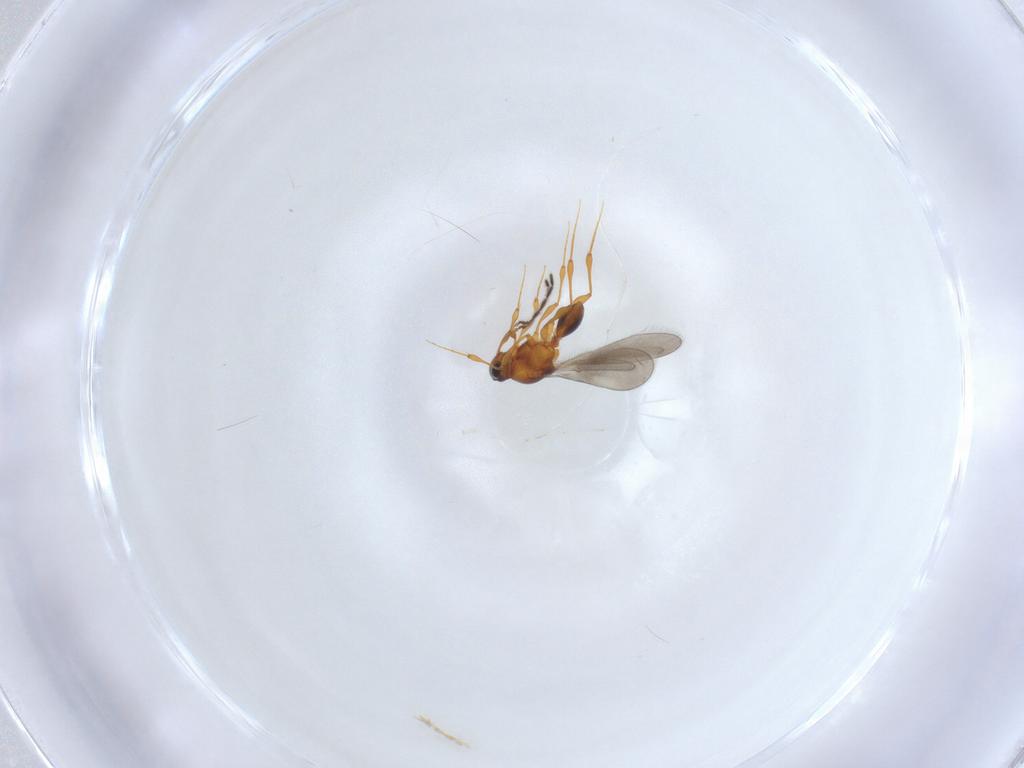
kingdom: Animalia
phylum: Arthropoda
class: Insecta
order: Hymenoptera
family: Platygastridae
